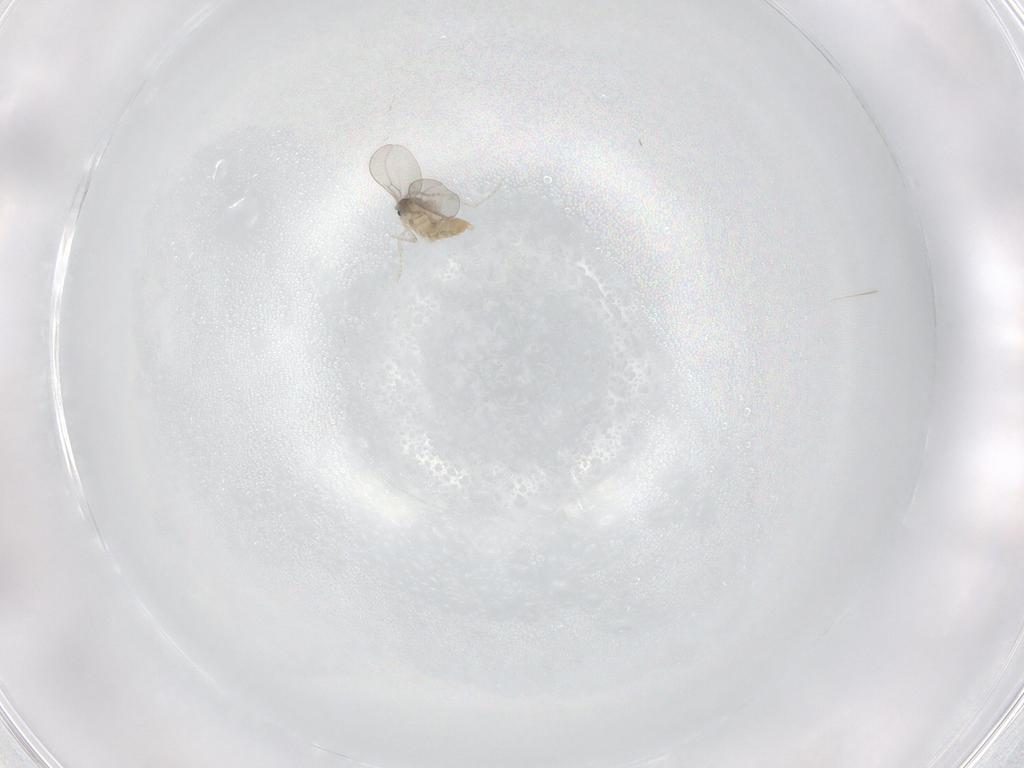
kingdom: Animalia
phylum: Arthropoda
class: Insecta
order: Diptera
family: Cecidomyiidae
